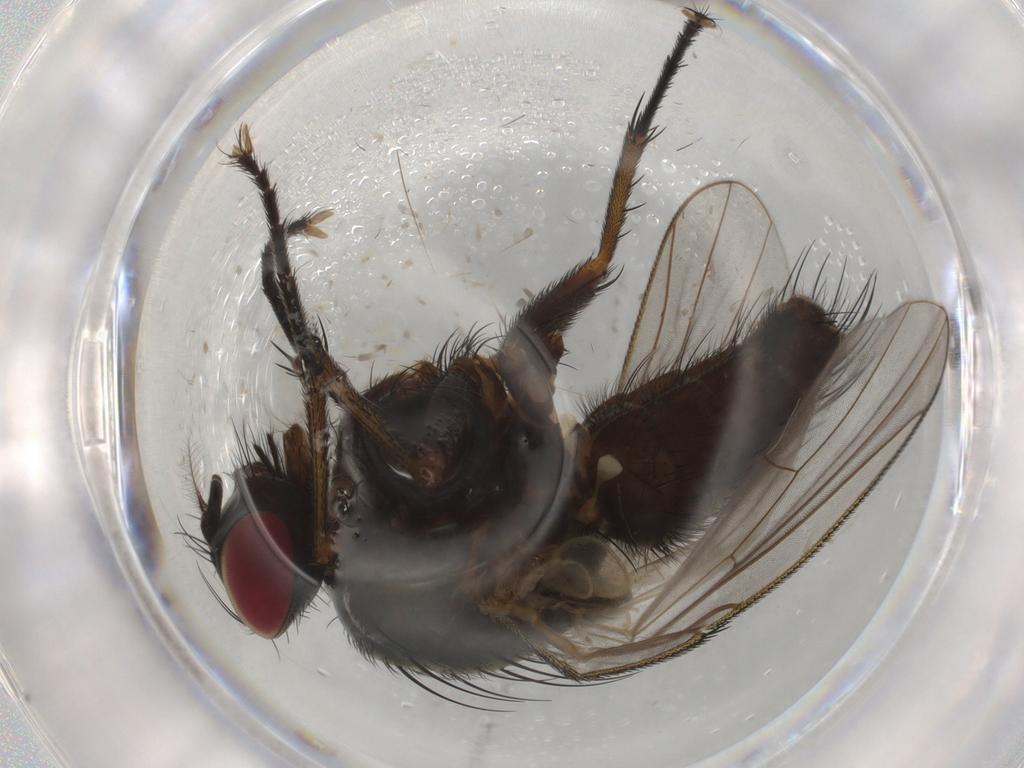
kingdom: Animalia
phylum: Arthropoda
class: Insecta
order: Diptera
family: Muscidae
